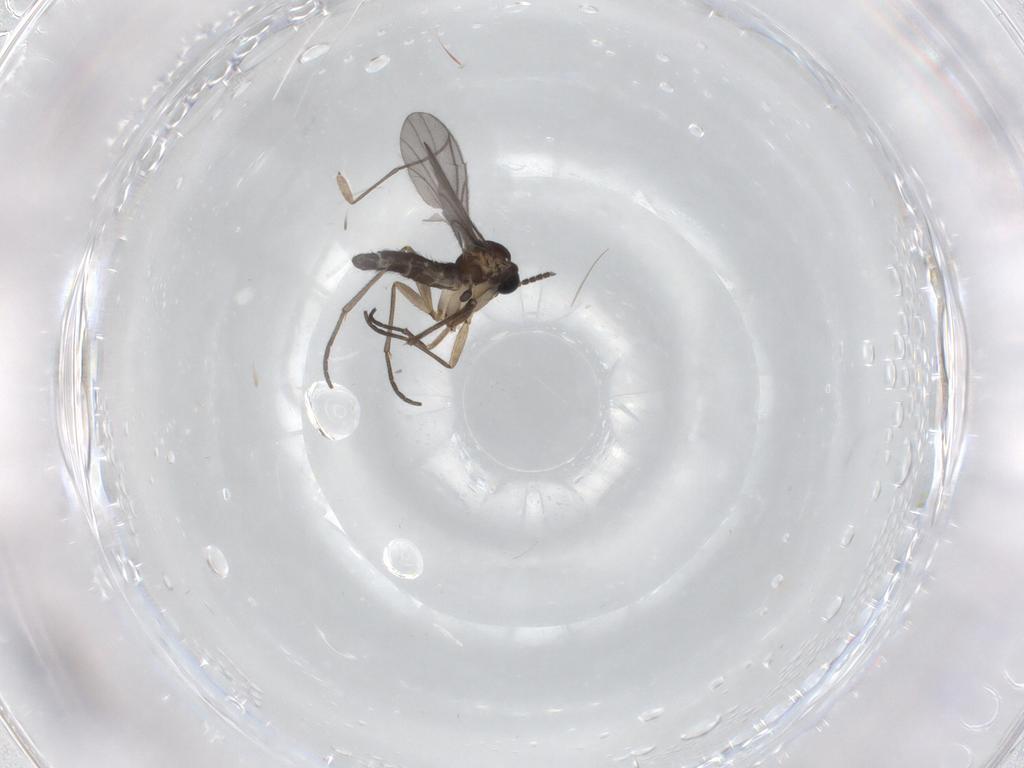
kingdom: Animalia
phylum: Arthropoda
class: Insecta
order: Diptera
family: Sciaridae
